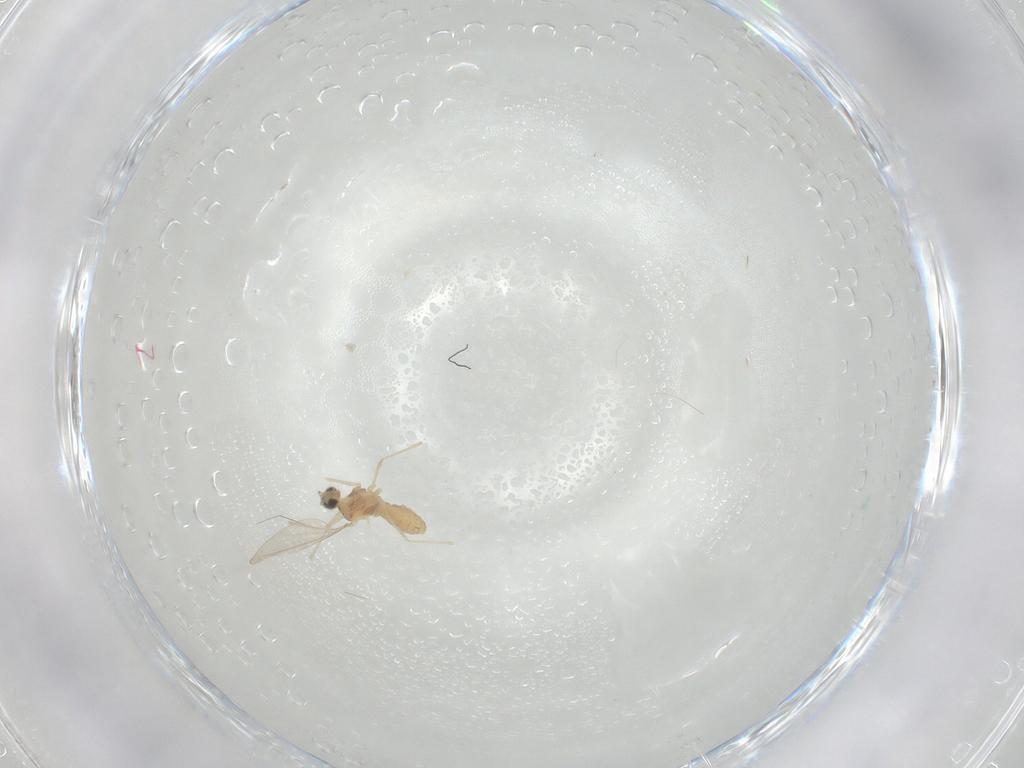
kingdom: Animalia
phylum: Arthropoda
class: Insecta
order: Diptera
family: Cecidomyiidae
